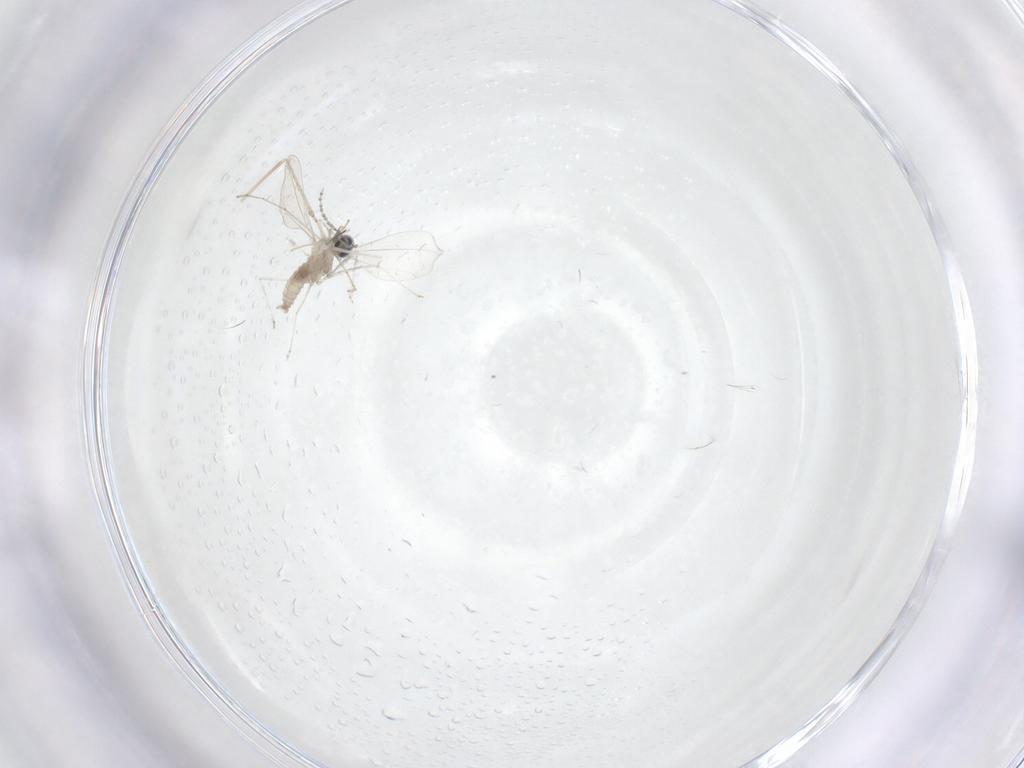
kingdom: Animalia
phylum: Arthropoda
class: Insecta
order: Diptera
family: Cecidomyiidae
